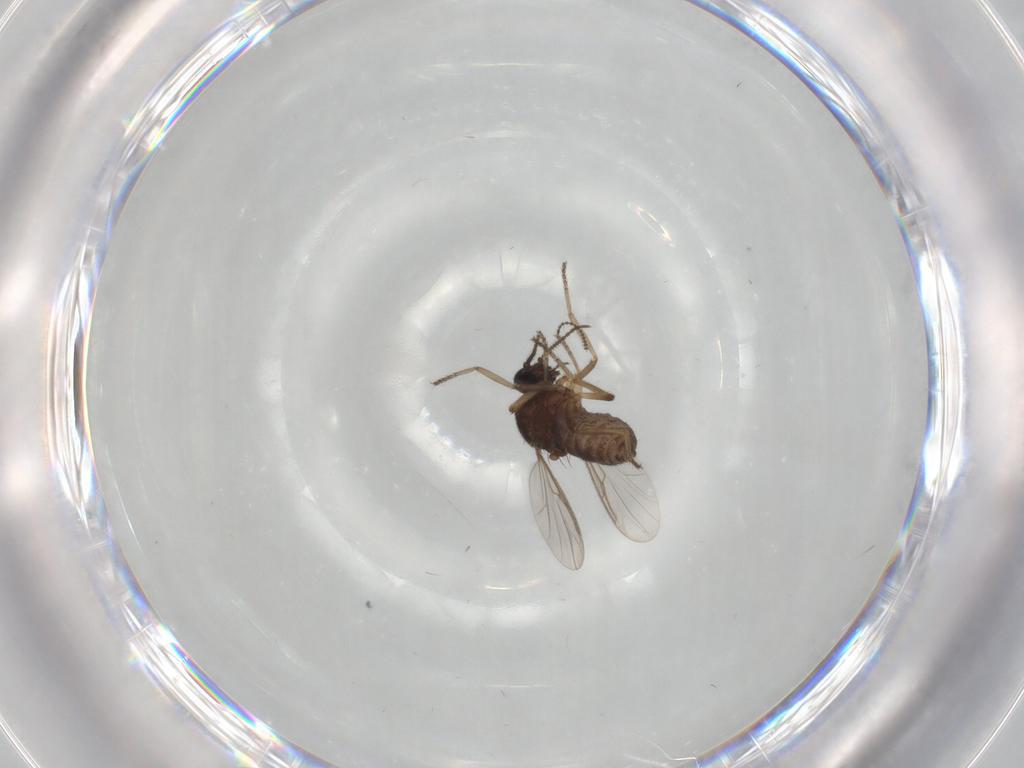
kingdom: Animalia
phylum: Arthropoda
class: Insecta
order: Diptera
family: Ceratopogonidae
